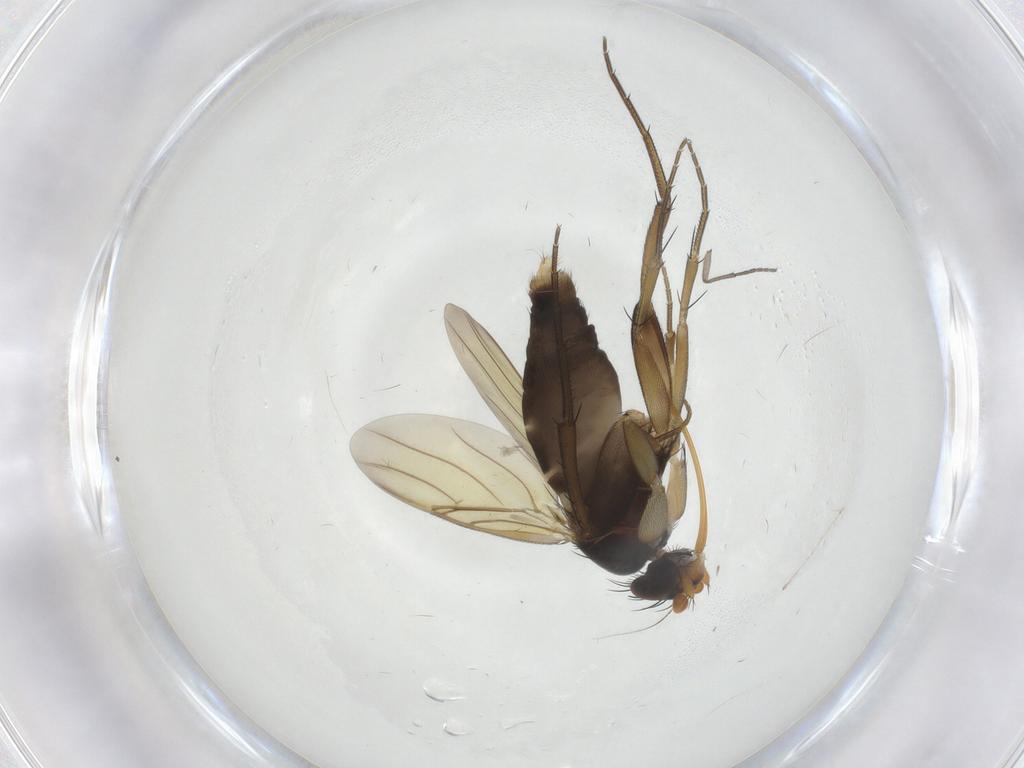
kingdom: Animalia
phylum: Arthropoda
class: Insecta
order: Diptera
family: Phoridae
